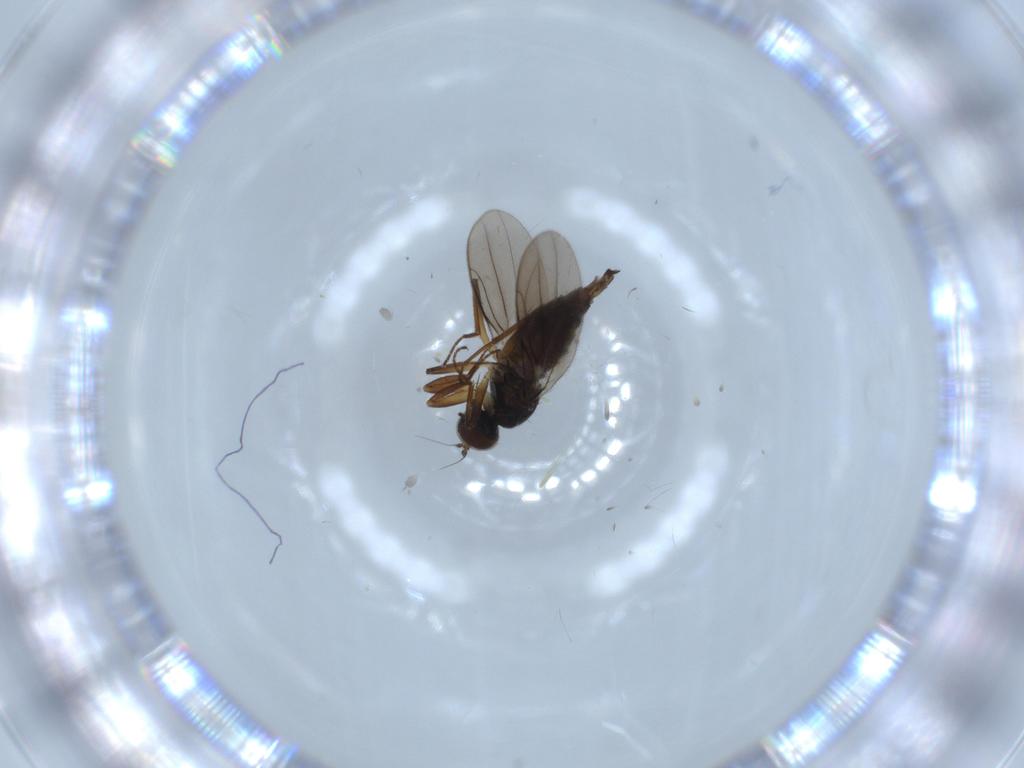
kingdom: Animalia
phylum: Arthropoda
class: Insecta
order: Diptera
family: Hybotidae
